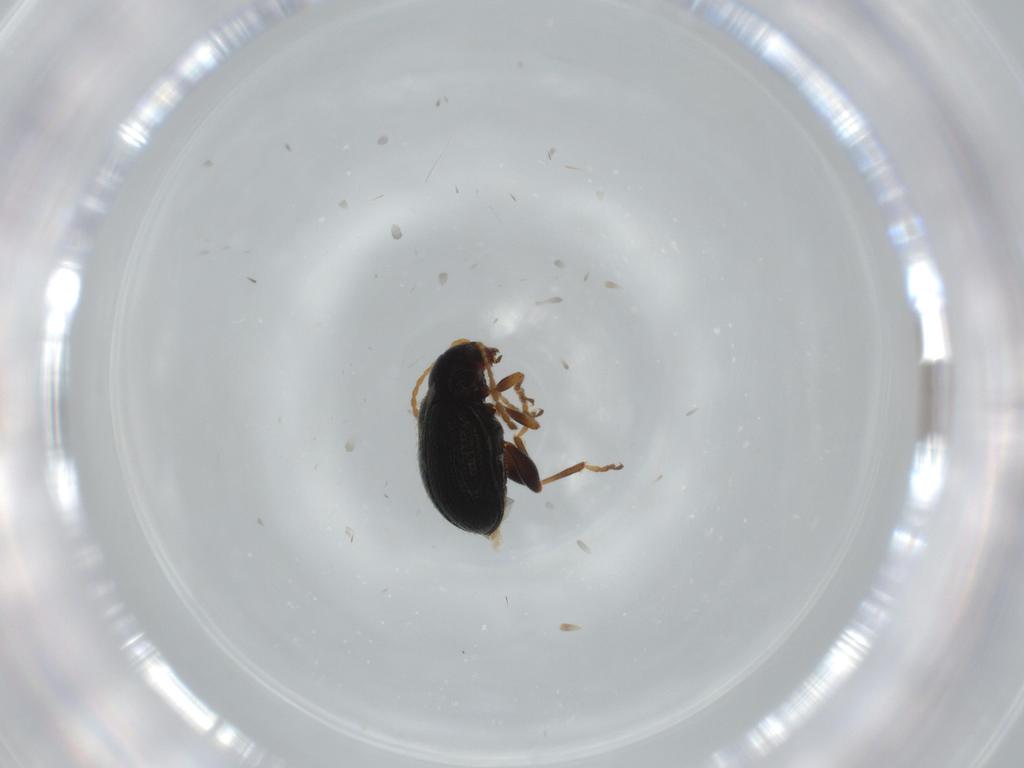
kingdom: Animalia
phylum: Arthropoda
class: Insecta
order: Coleoptera
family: Chrysomelidae
